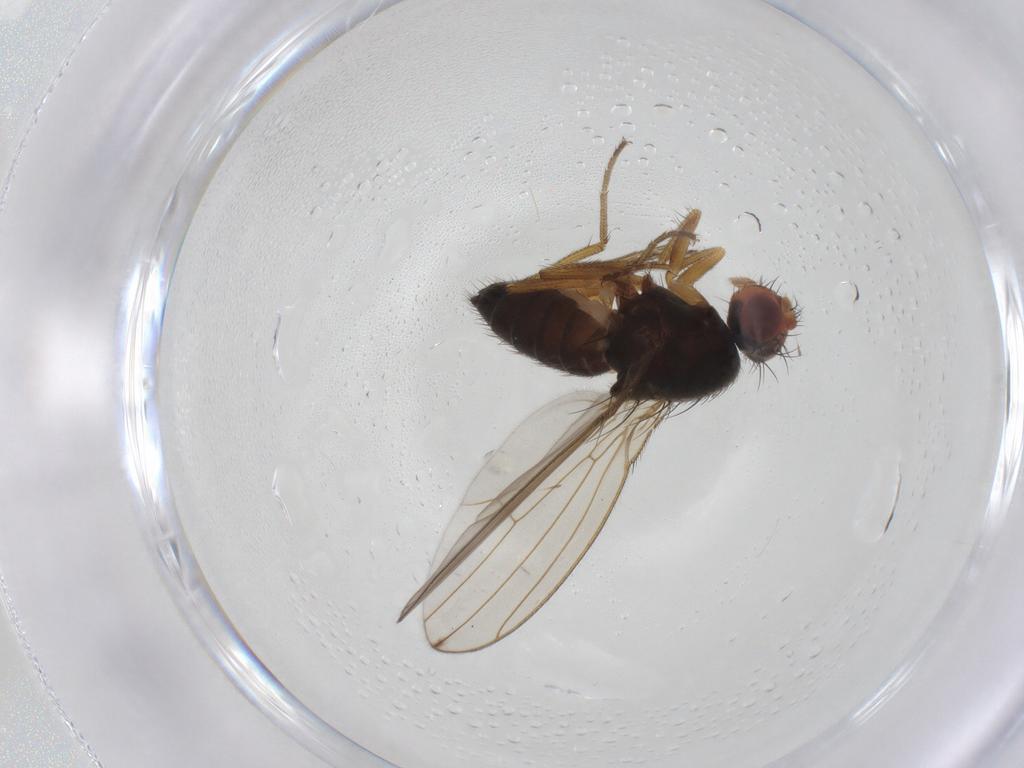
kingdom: Animalia
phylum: Arthropoda
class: Insecta
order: Diptera
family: Drosophilidae
